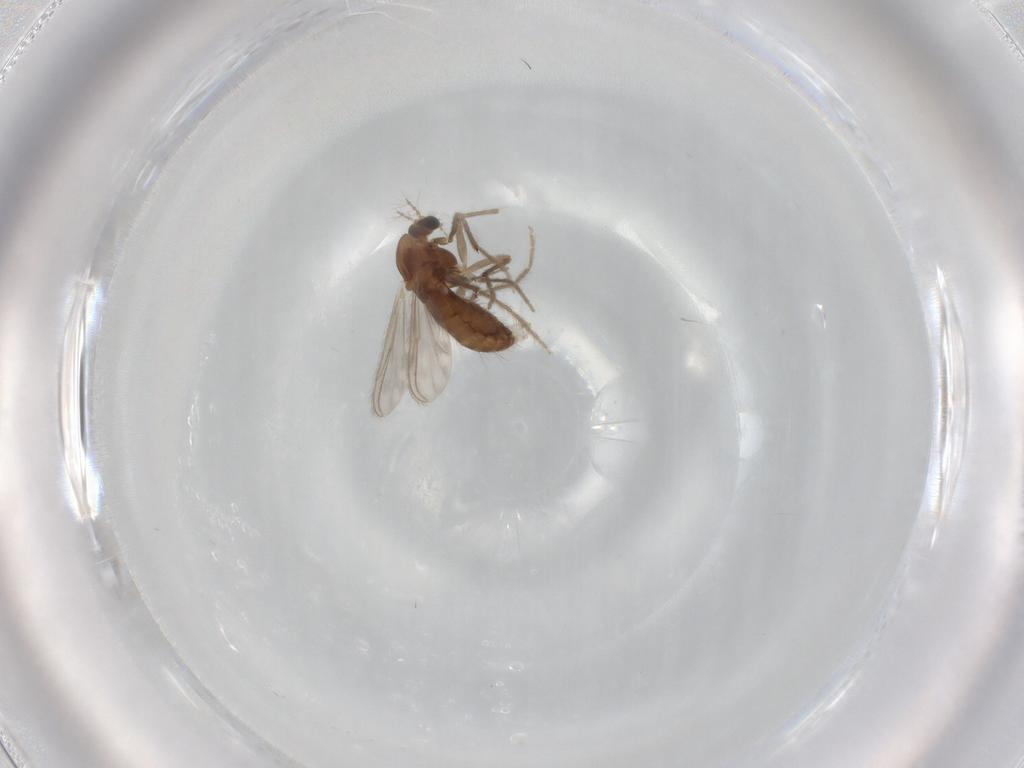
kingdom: Animalia
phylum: Arthropoda
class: Insecta
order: Diptera
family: Chironomidae
